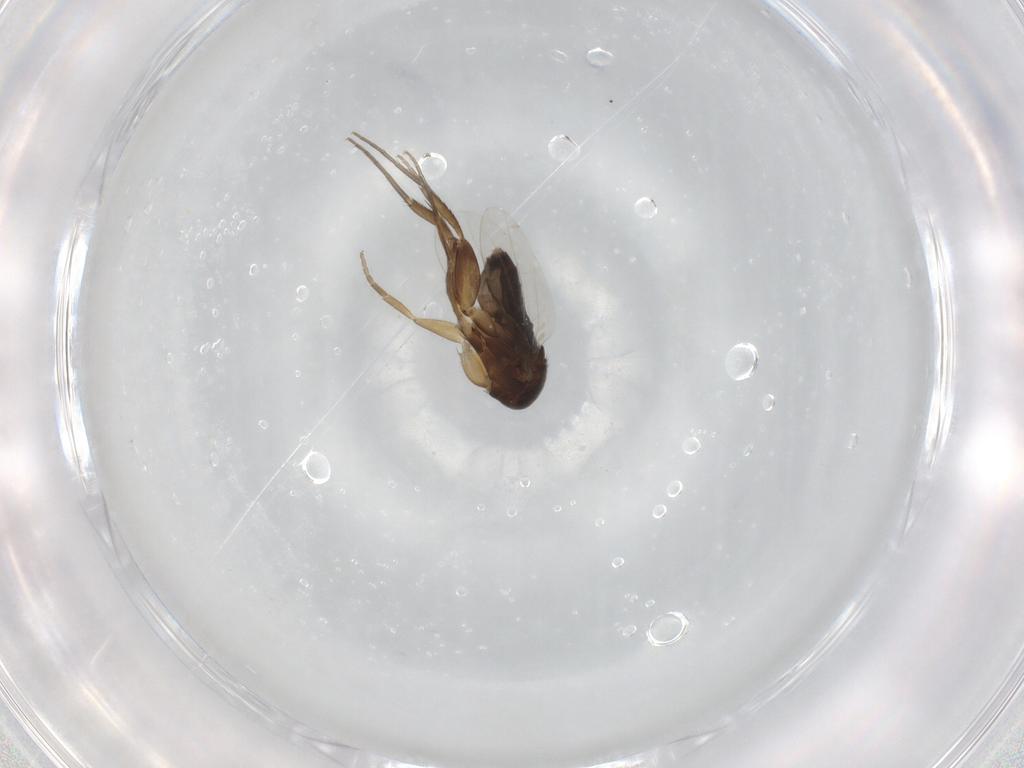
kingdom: Animalia
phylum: Arthropoda
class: Insecta
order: Diptera
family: Phoridae
